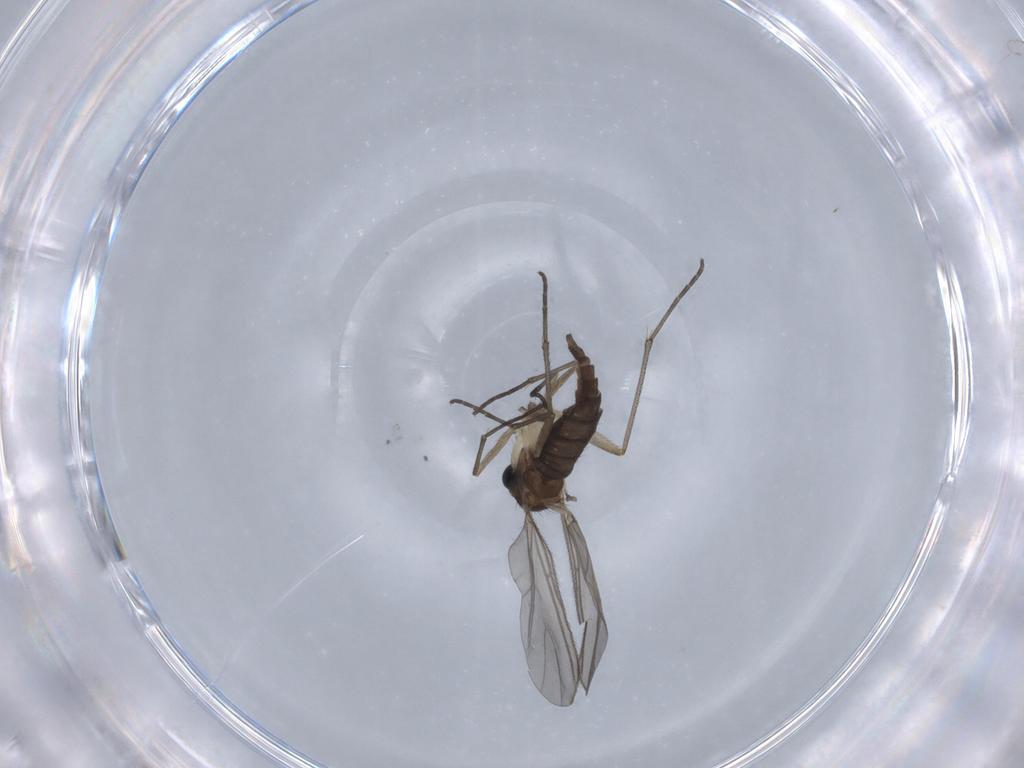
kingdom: Animalia
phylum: Arthropoda
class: Insecta
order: Diptera
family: Sciaridae
